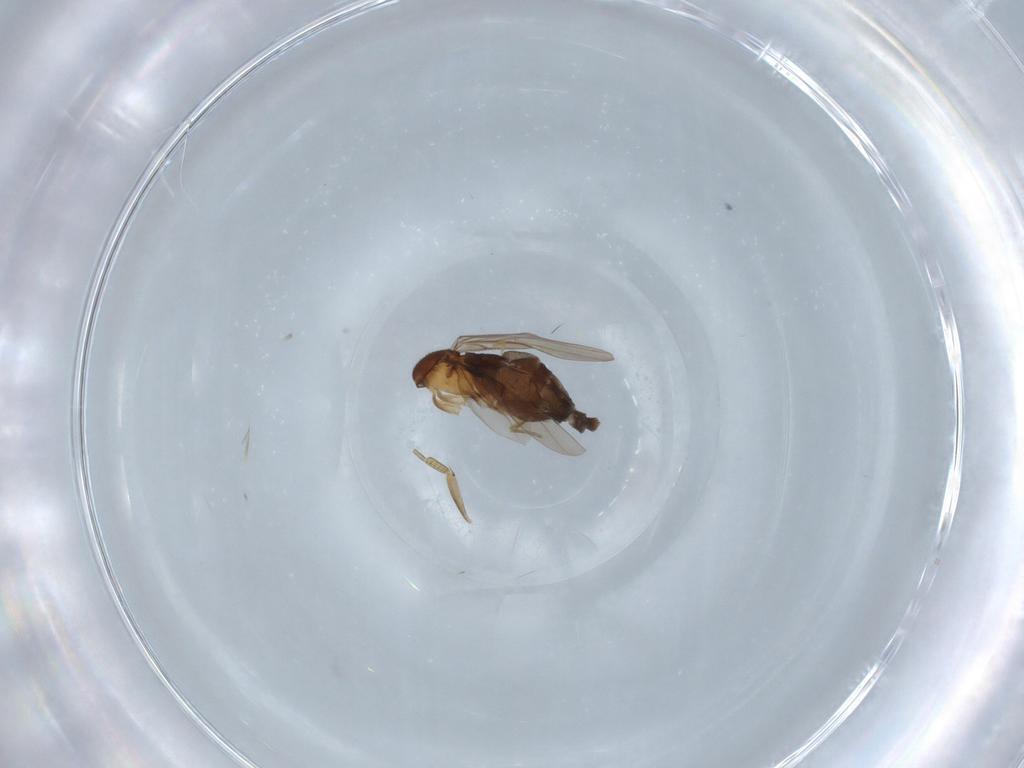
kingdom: Animalia
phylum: Arthropoda
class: Insecta
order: Diptera
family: Phoridae
